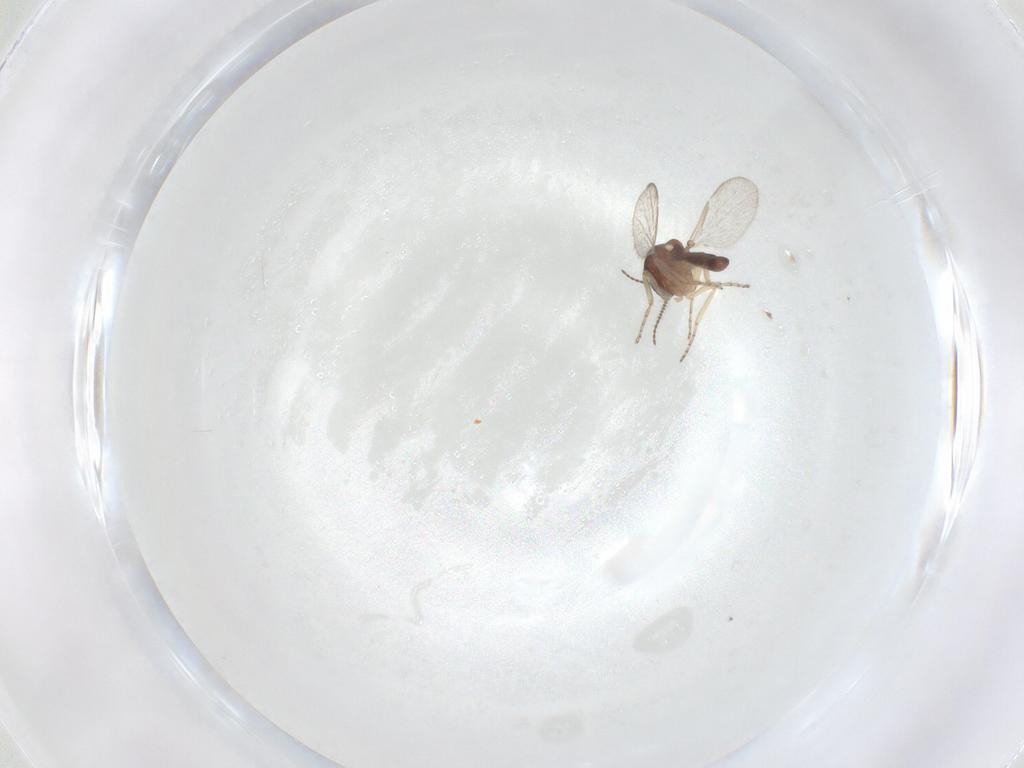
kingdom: Animalia
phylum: Arthropoda
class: Insecta
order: Diptera
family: Ceratopogonidae
